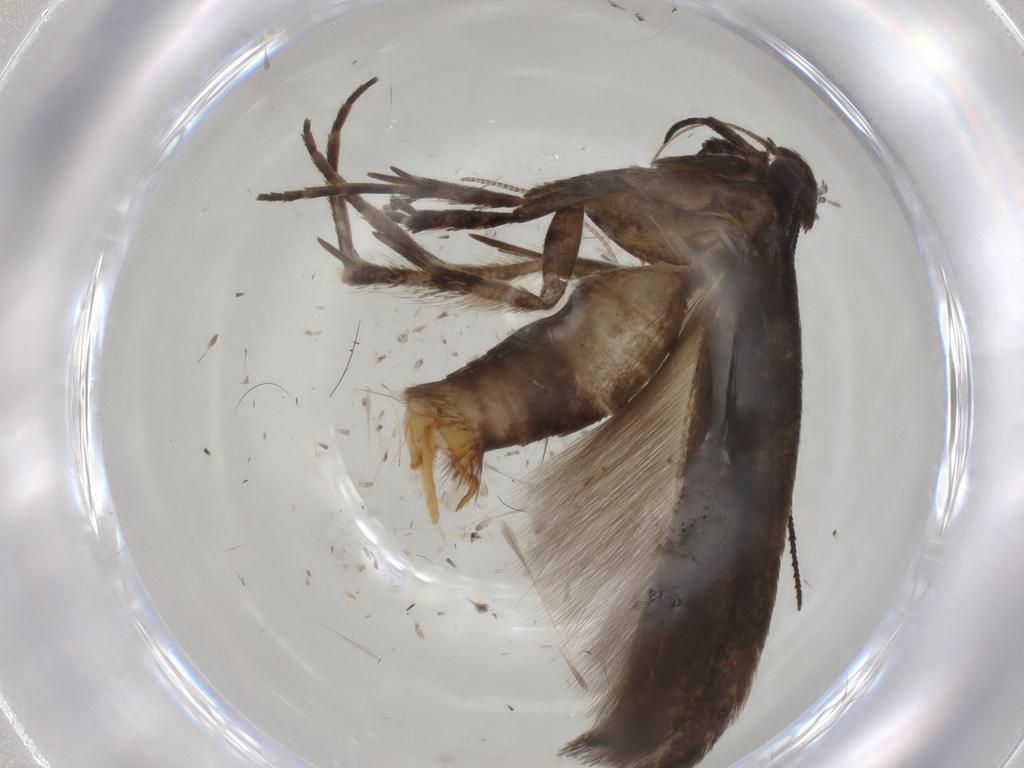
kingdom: Animalia
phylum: Arthropoda
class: Insecta
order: Lepidoptera
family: Gelechiidae
